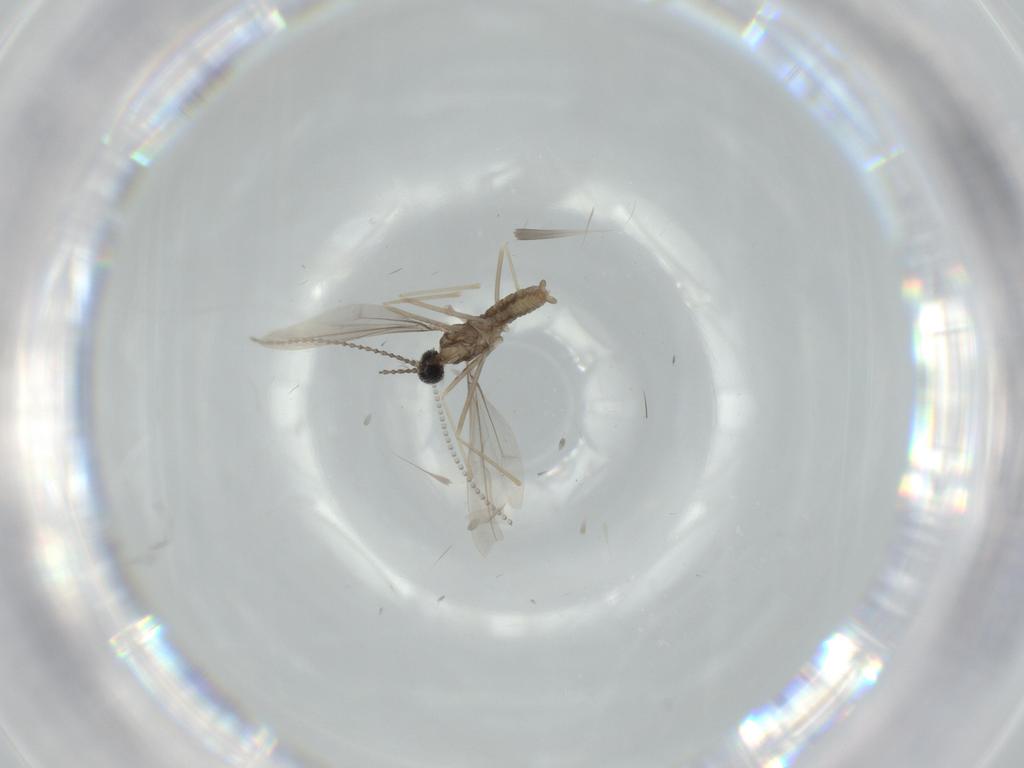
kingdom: Animalia
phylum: Arthropoda
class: Insecta
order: Diptera
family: Cecidomyiidae
